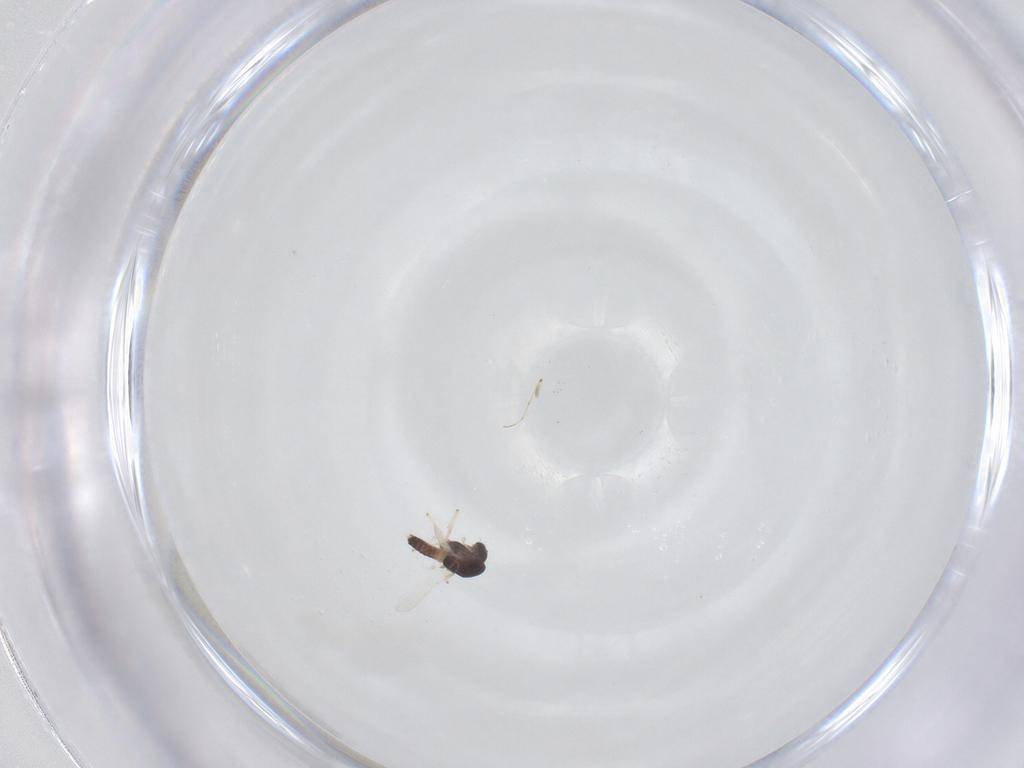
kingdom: Animalia
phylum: Arthropoda
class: Insecta
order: Diptera
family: Chironomidae
